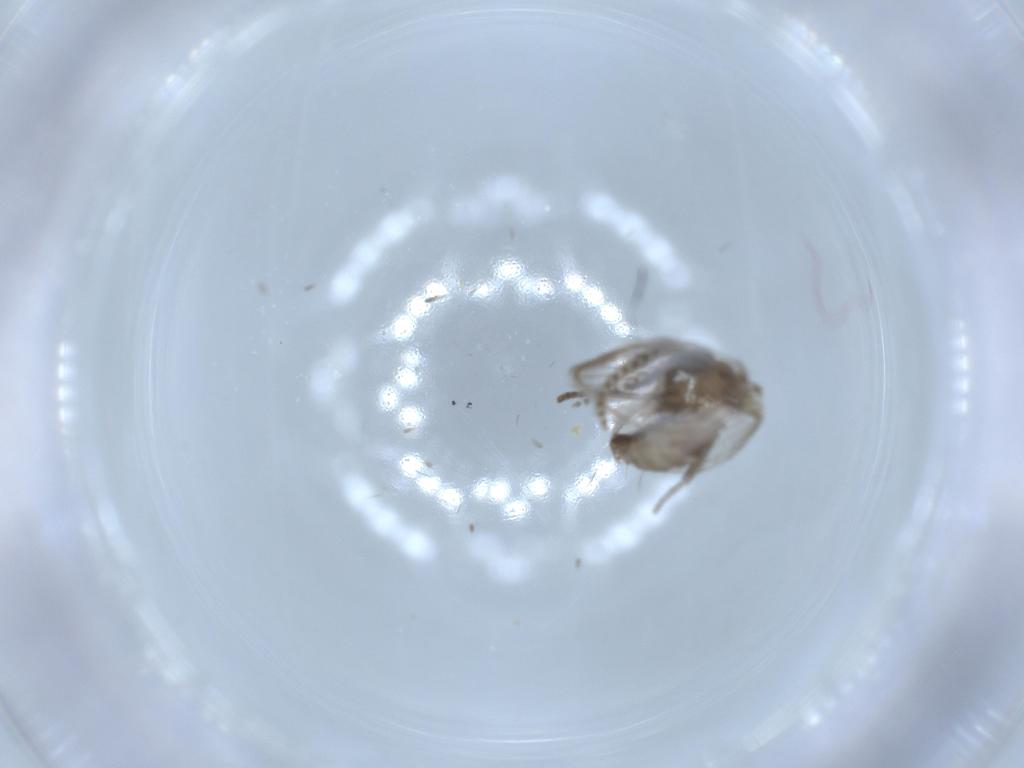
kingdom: Animalia
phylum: Arthropoda
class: Insecta
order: Diptera
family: Psychodidae
